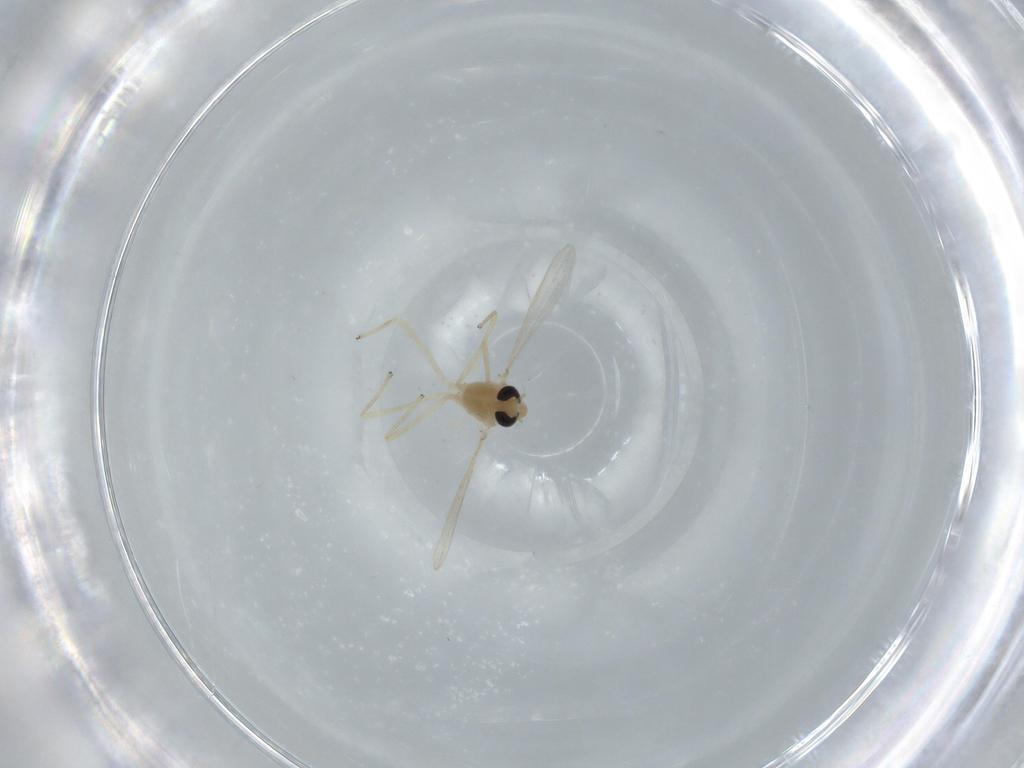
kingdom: Animalia
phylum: Arthropoda
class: Insecta
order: Diptera
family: Chironomidae
